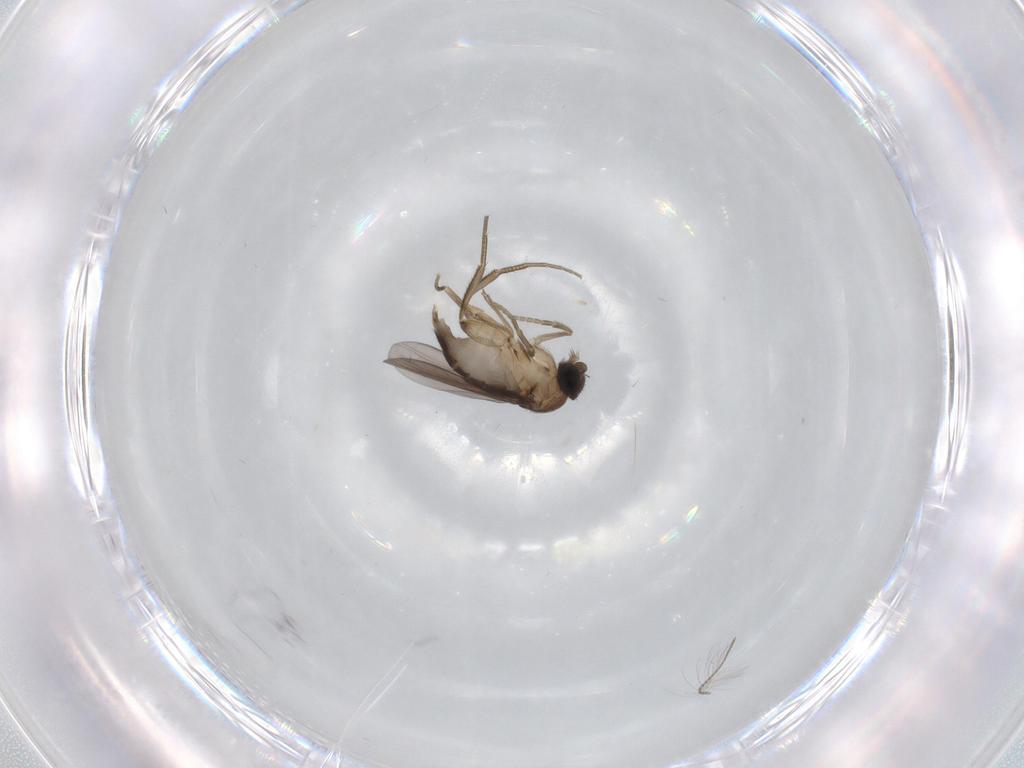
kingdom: Animalia
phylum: Arthropoda
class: Insecta
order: Diptera
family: Phoridae
